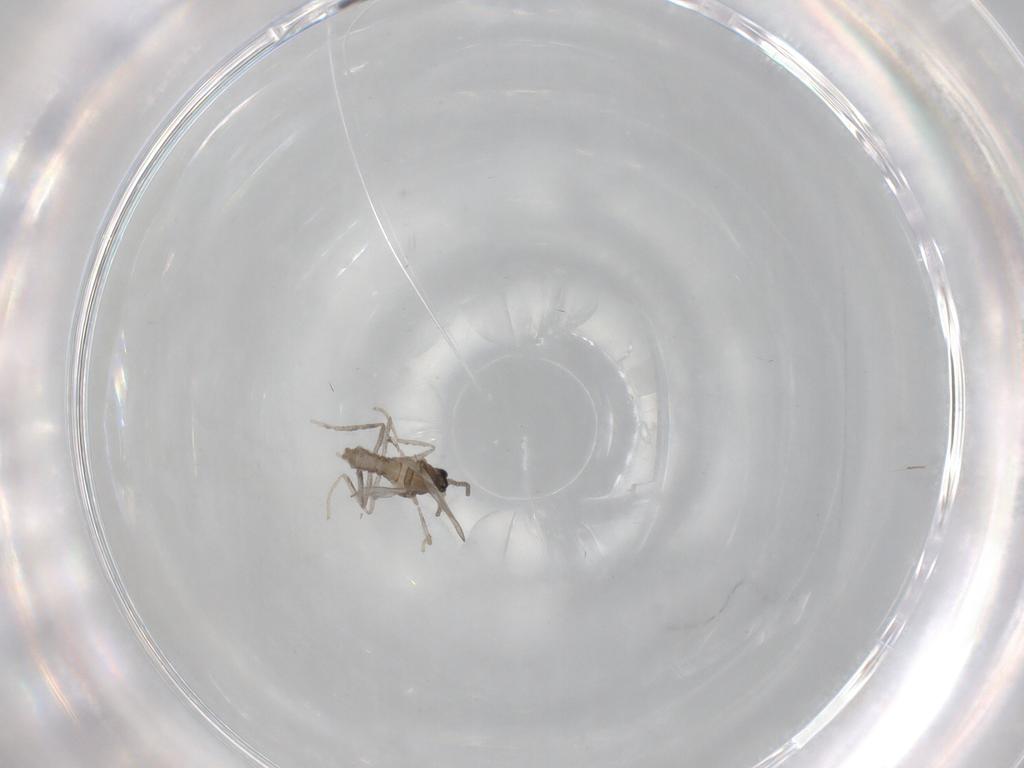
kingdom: Animalia
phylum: Arthropoda
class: Insecta
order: Diptera
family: Cecidomyiidae
